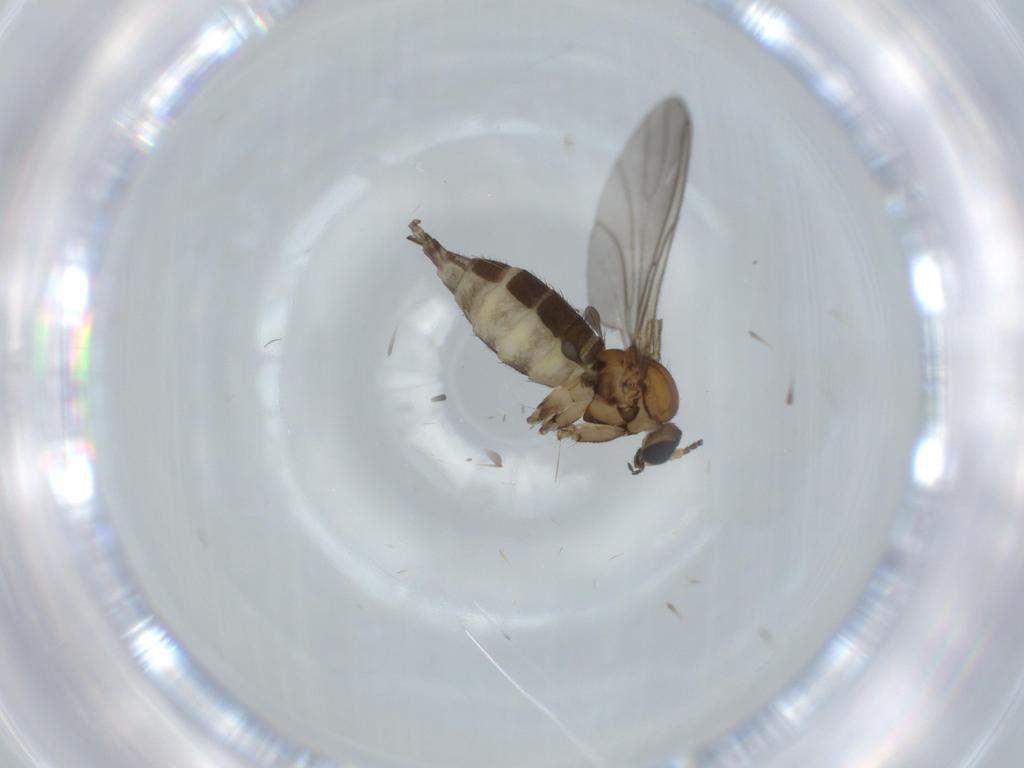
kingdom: Animalia
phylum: Arthropoda
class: Insecta
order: Diptera
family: Sciaridae
